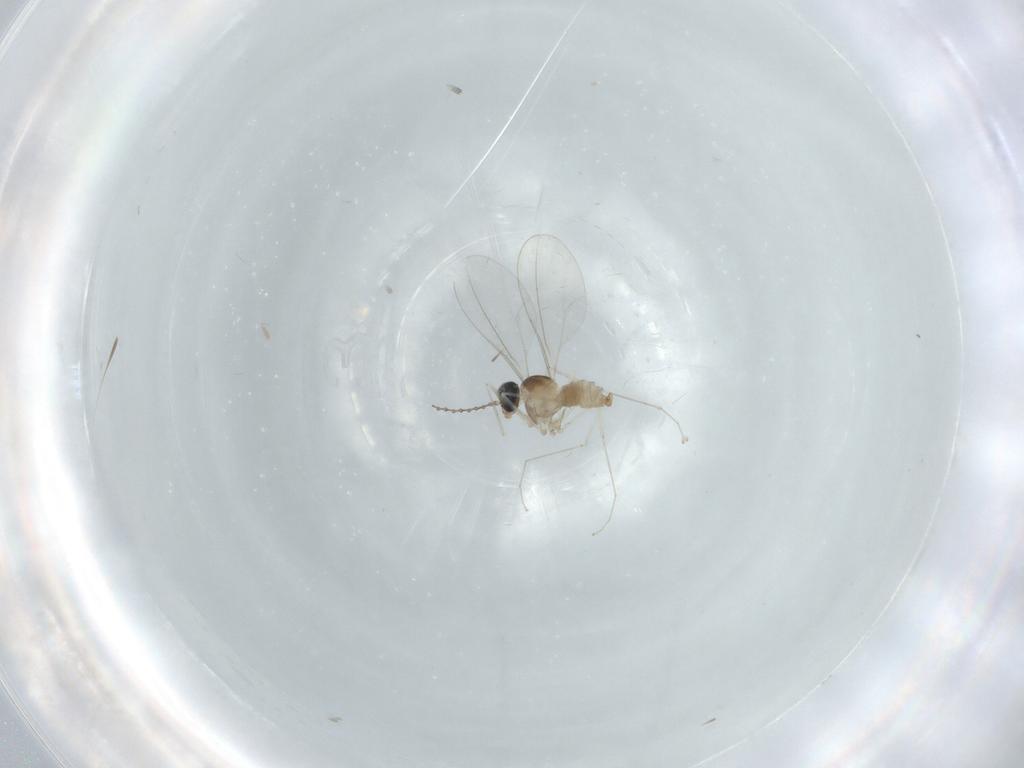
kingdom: Animalia
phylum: Arthropoda
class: Insecta
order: Diptera
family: Cecidomyiidae
